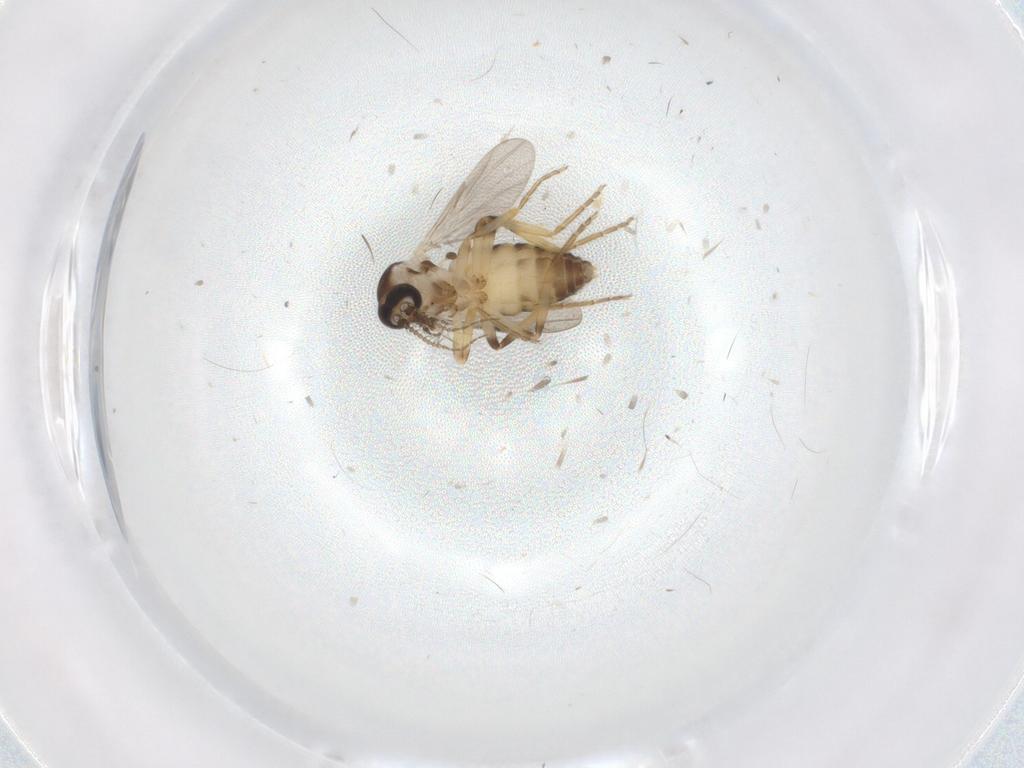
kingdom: Animalia
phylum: Arthropoda
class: Insecta
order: Diptera
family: Ceratopogonidae
